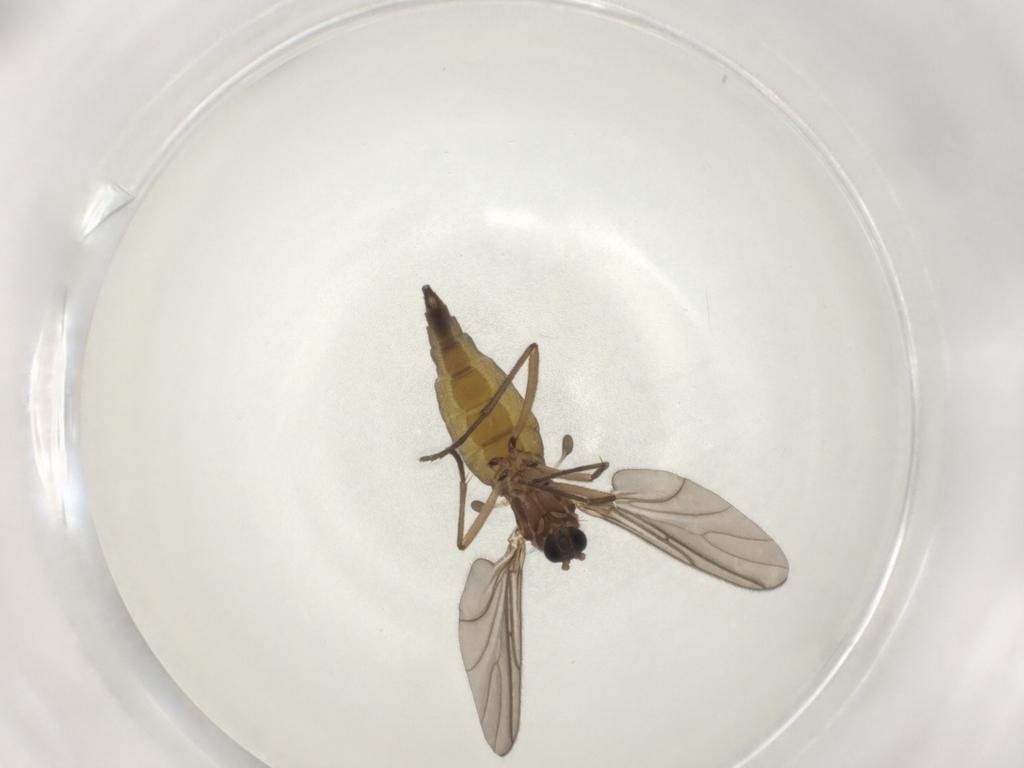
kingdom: Animalia
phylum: Arthropoda
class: Insecta
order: Diptera
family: Sciaridae
